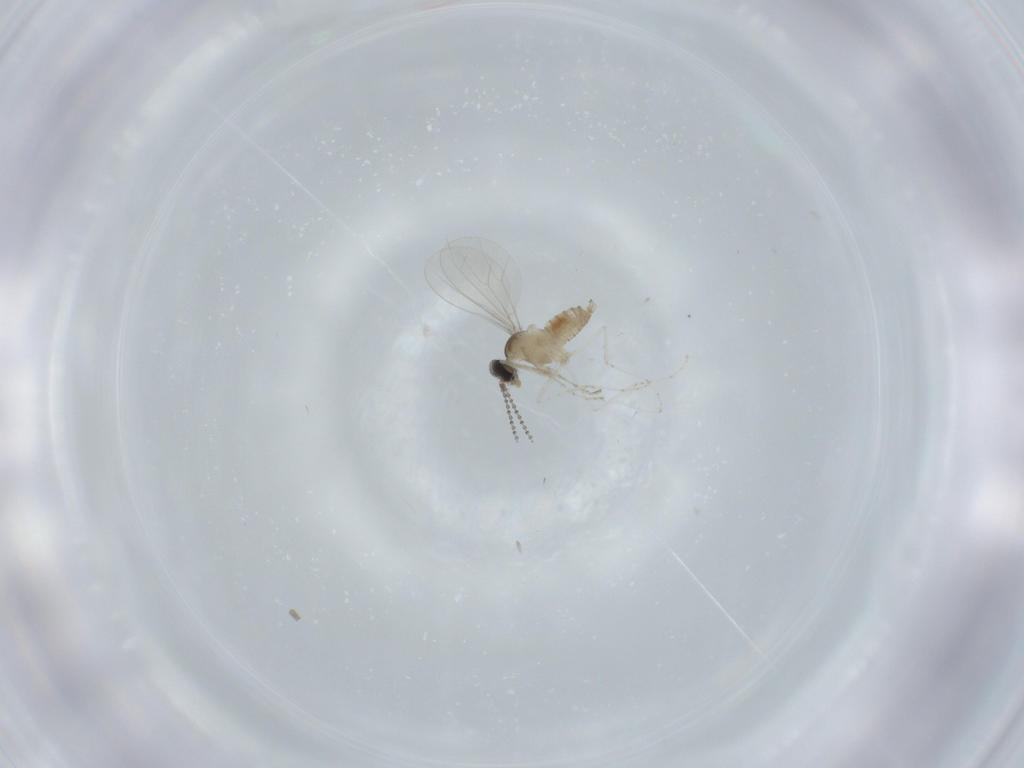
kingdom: Animalia
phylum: Arthropoda
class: Insecta
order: Diptera
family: Cecidomyiidae
